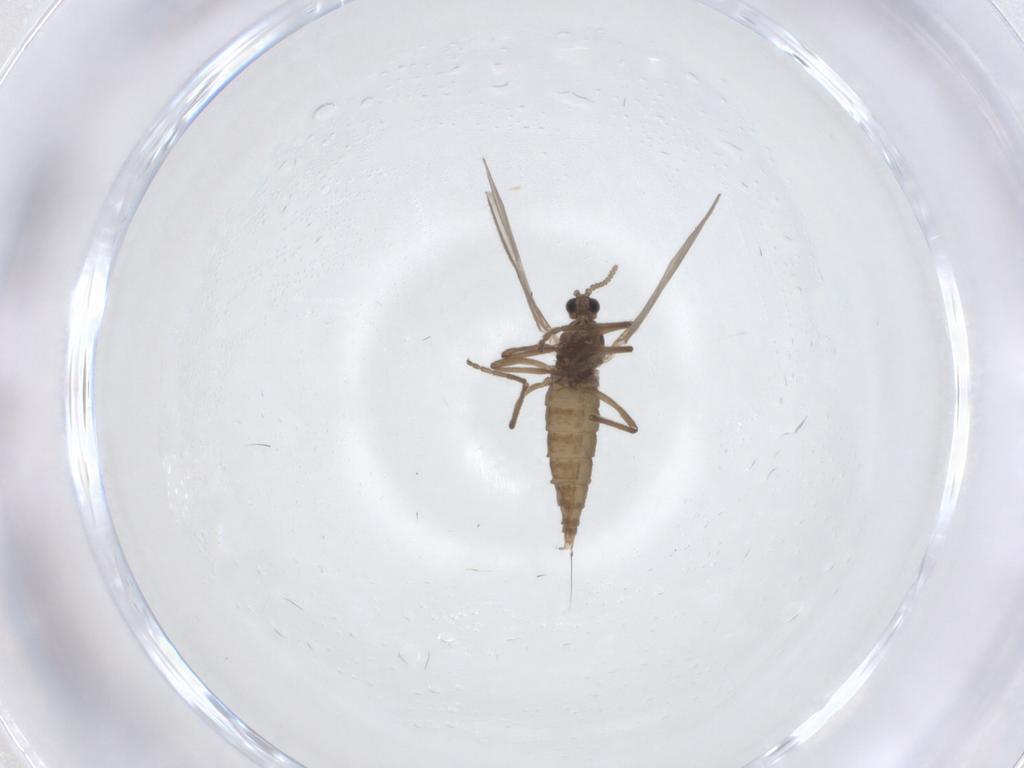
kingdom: Animalia
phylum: Arthropoda
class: Insecta
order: Diptera
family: Cecidomyiidae
